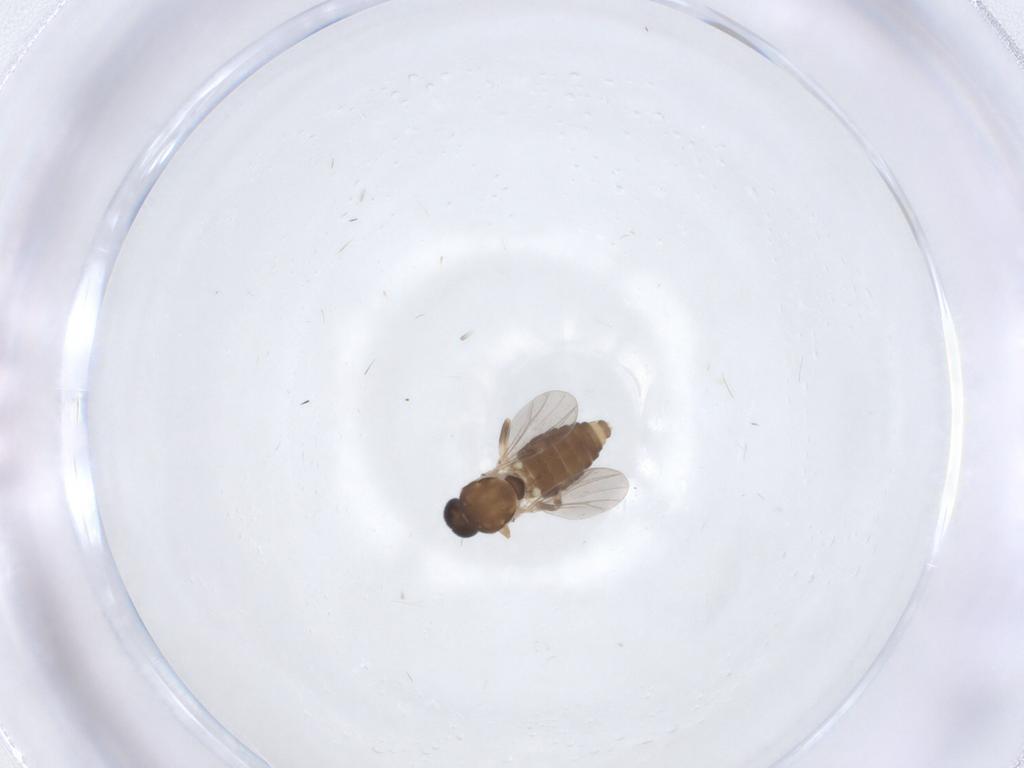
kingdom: Animalia
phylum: Arthropoda
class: Insecta
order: Diptera
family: Ceratopogonidae
